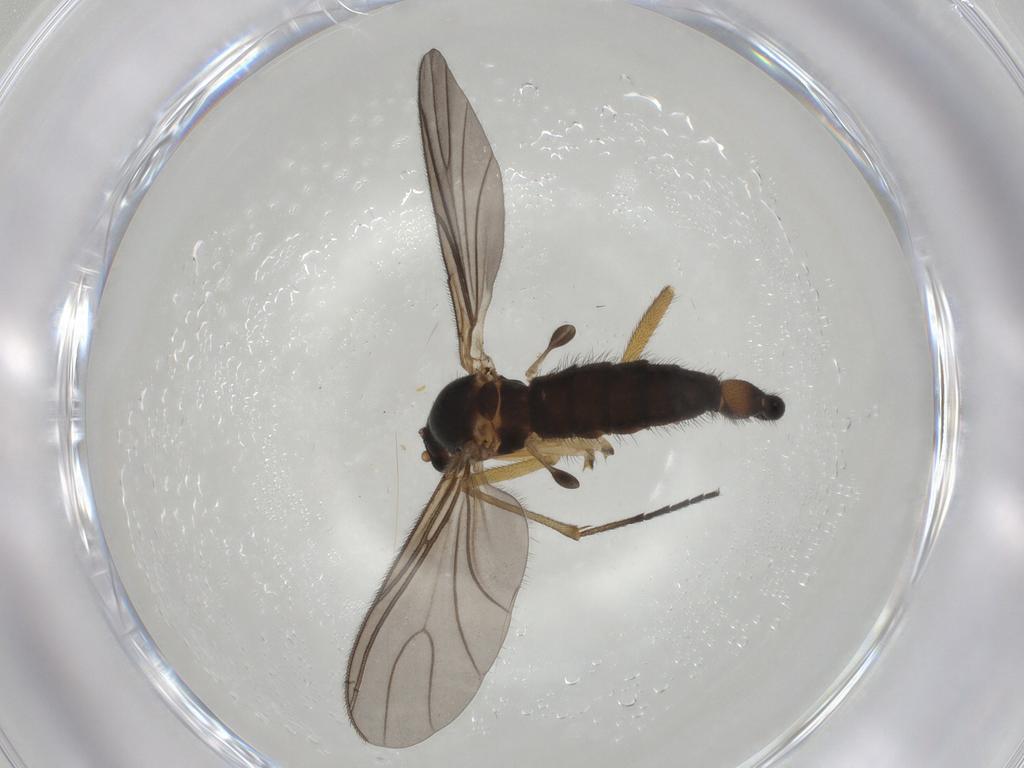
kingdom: Animalia
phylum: Arthropoda
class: Insecta
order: Diptera
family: Sciaridae
